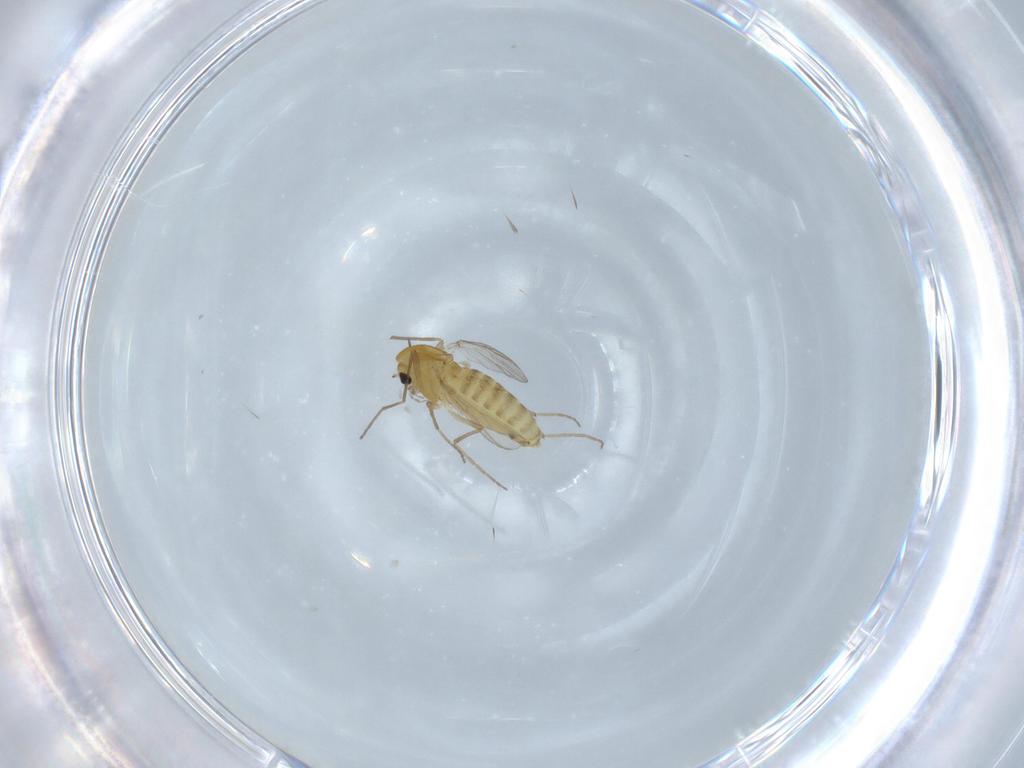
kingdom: Animalia
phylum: Arthropoda
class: Insecta
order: Diptera
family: Chironomidae
